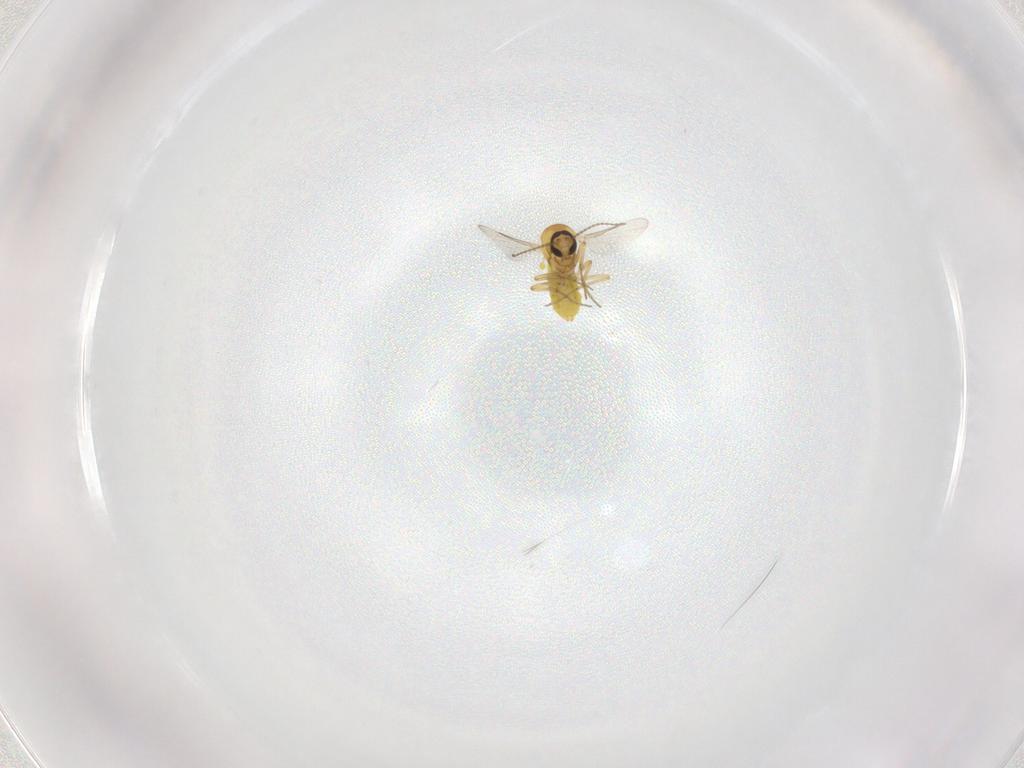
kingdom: Animalia
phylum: Arthropoda
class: Insecta
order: Diptera
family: Ceratopogonidae
